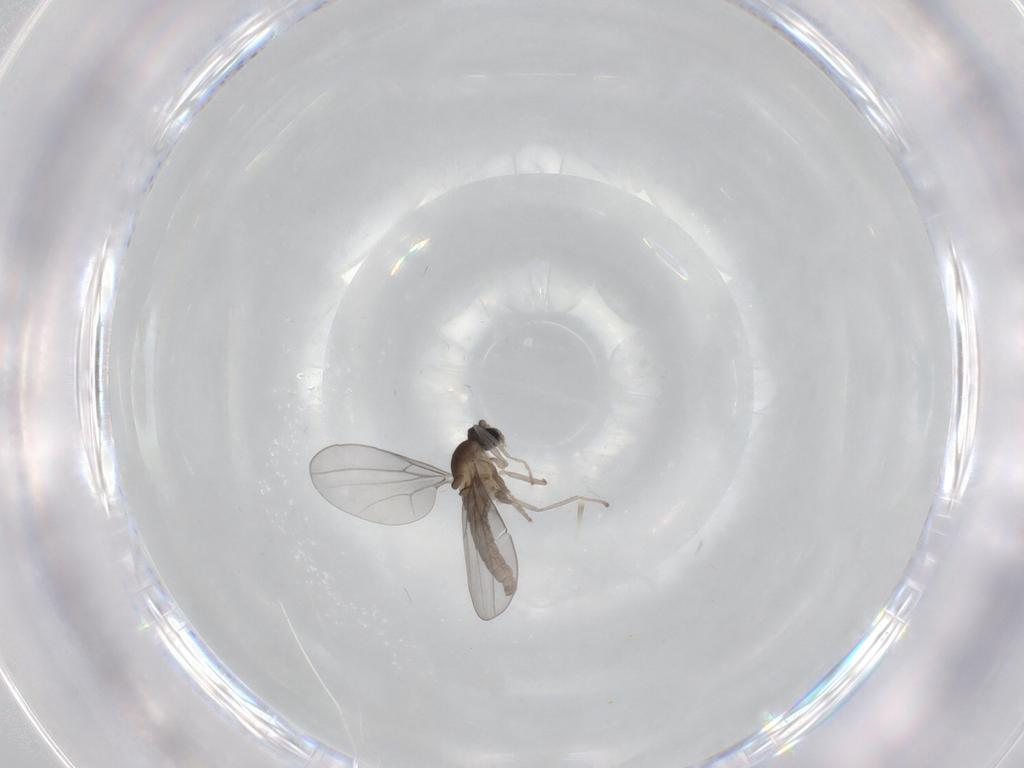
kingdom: Animalia
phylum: Arthropoda
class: Insecta
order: Diptera
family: Cecidomyiidae
